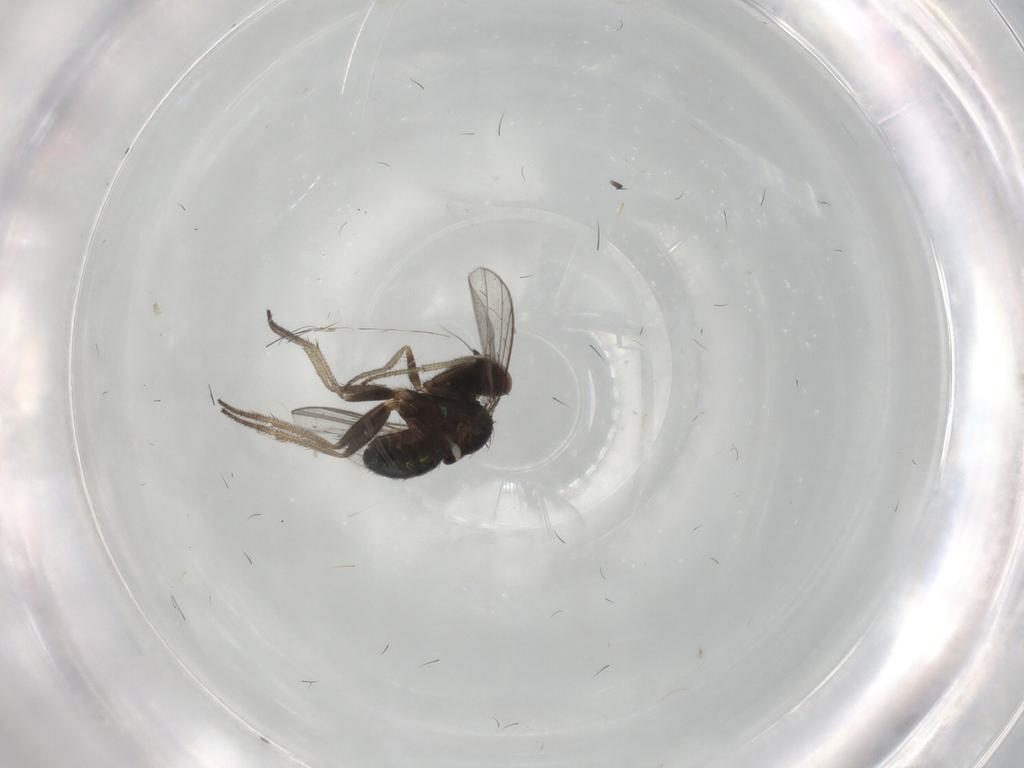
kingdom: Animalia
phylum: Arthropoda
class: Insecta
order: Diptera
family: Dolichopodidae
